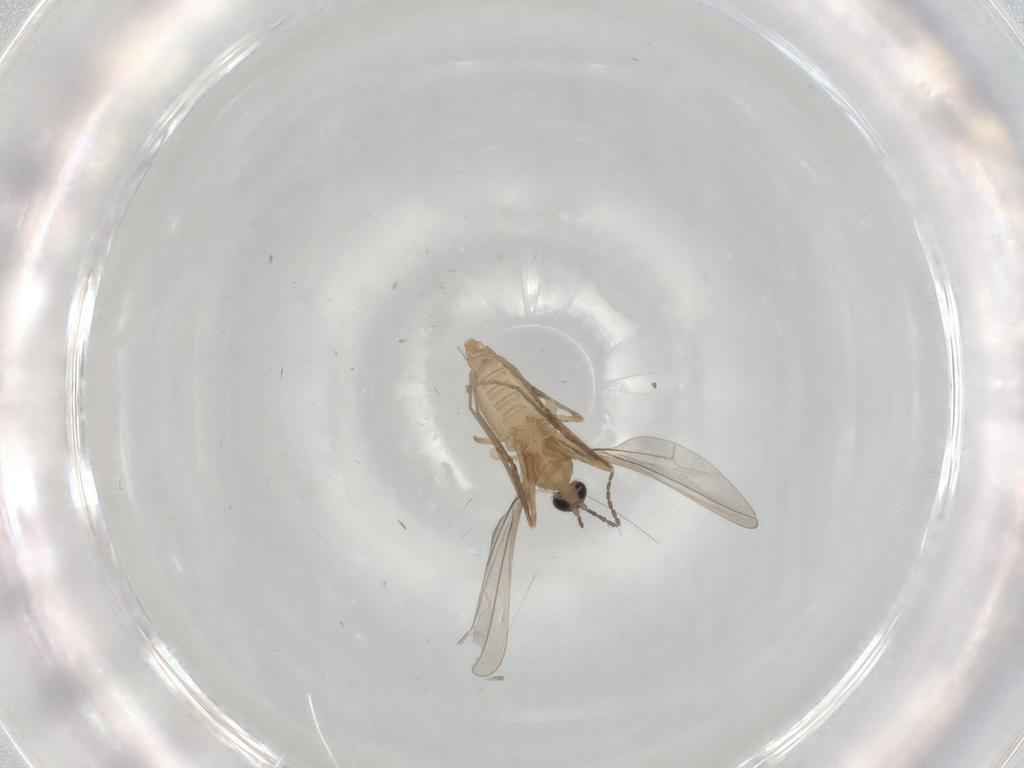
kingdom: Animalia
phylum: Arthropoda
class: Insecta
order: Diptera
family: Cecidomyiidae
